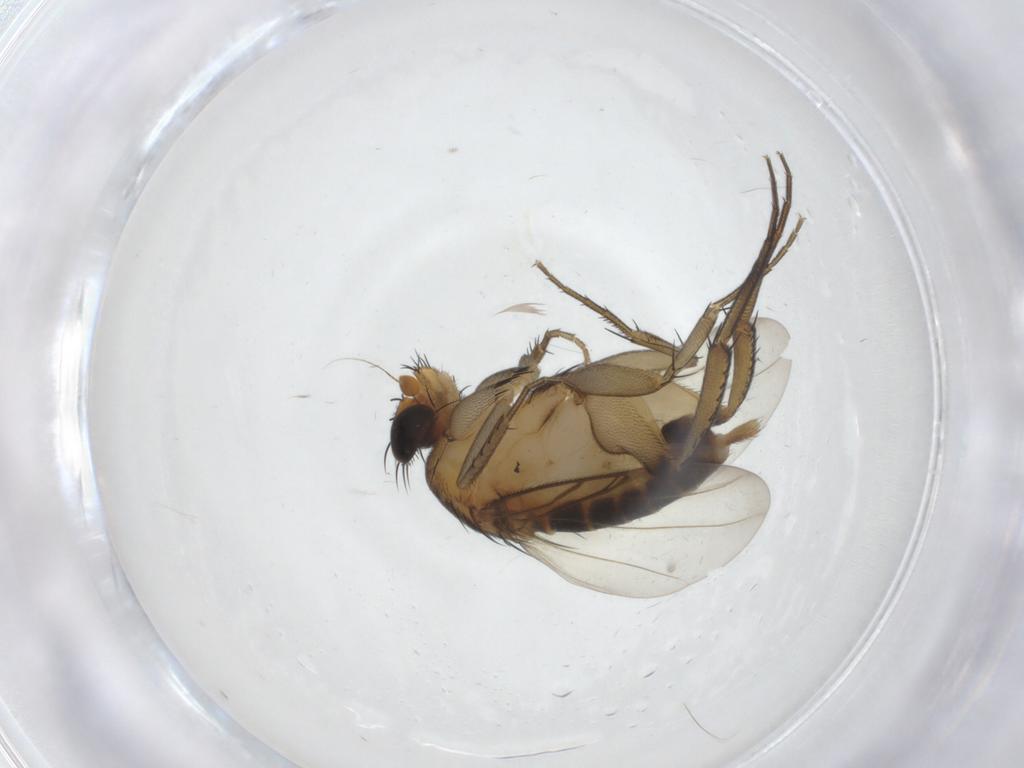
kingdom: Animalia
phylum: Arthropoda
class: Insecta
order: Diptera
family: Phoridae
